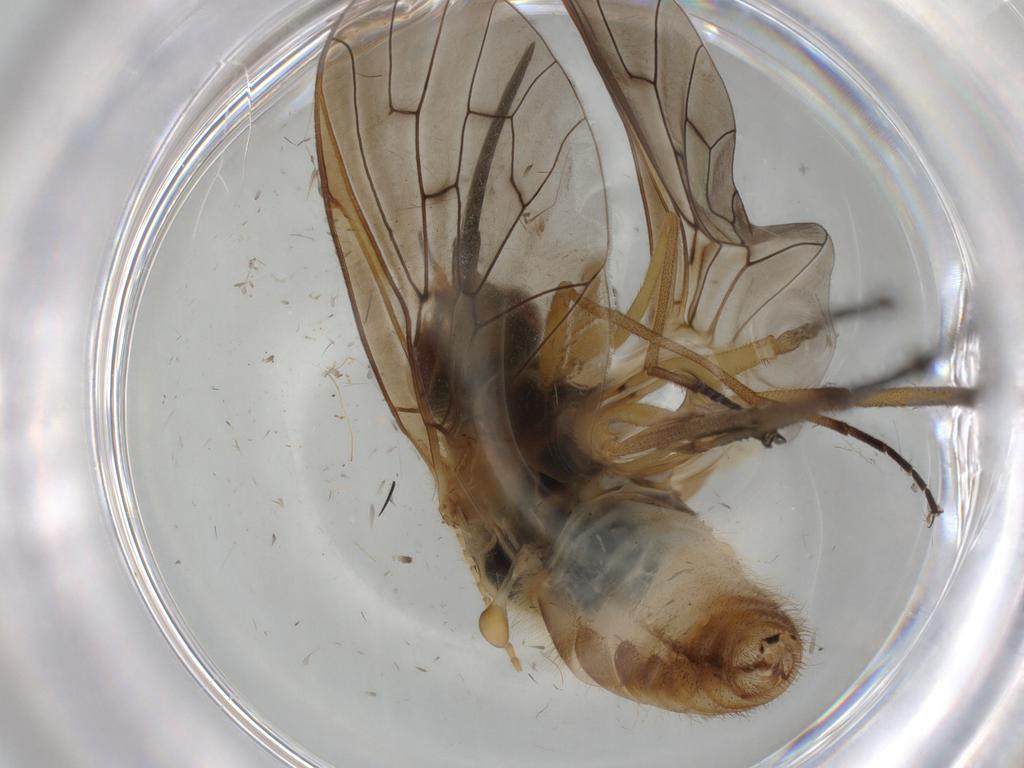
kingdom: Animalia
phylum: Arthropoda
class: Insecta
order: Diptera
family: Bombyliidae
